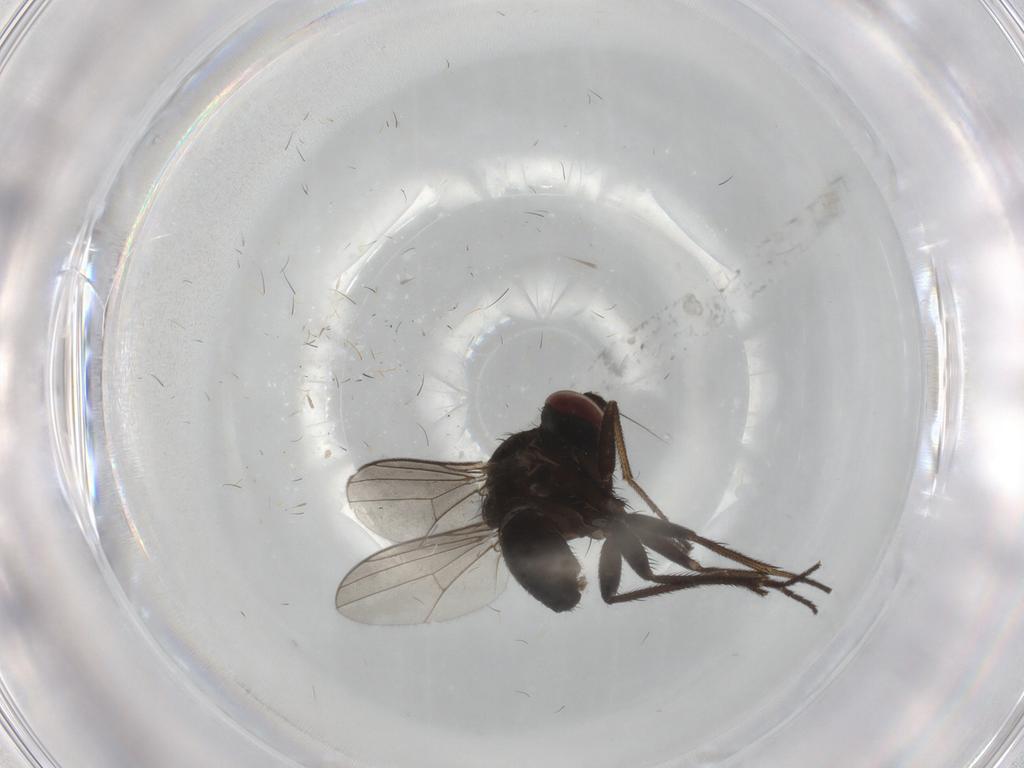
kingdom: Animalia
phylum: Arthropoda
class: Insecta
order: Diptera
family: Dolichopodidae
